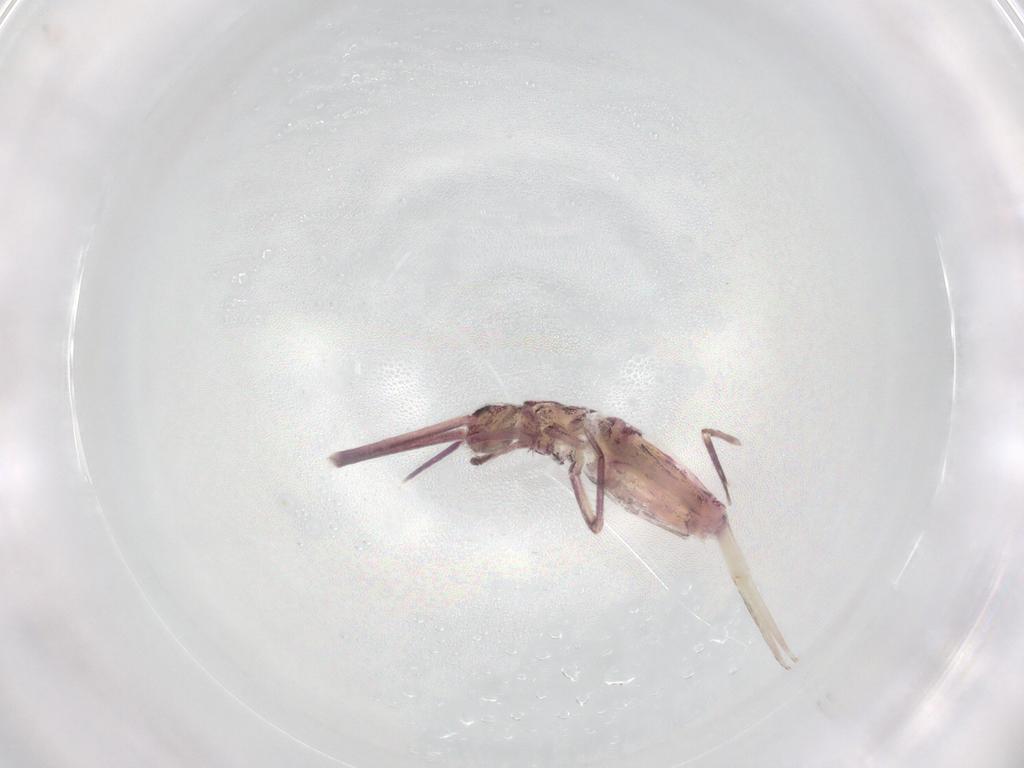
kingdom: Animalia
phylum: Arthropoda
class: Collembola
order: Entomobryomorpha
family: Entomobryidae
